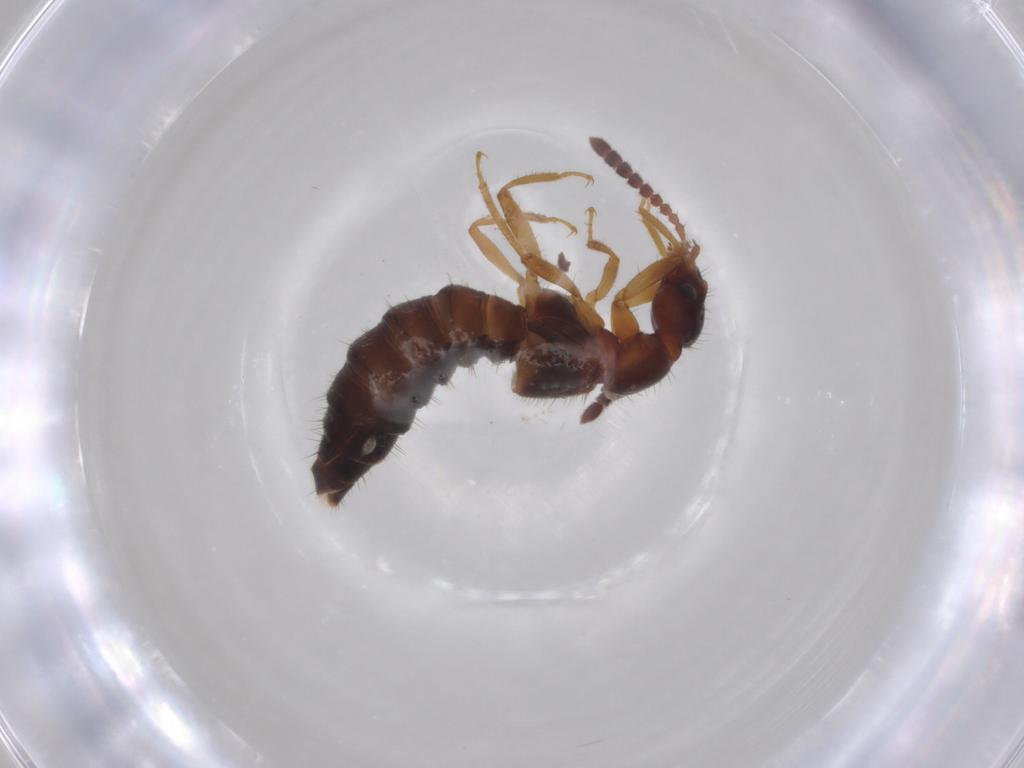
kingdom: Animalia
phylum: Arthropoda
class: Insecta
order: Coleoptera
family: Staphylinidae
